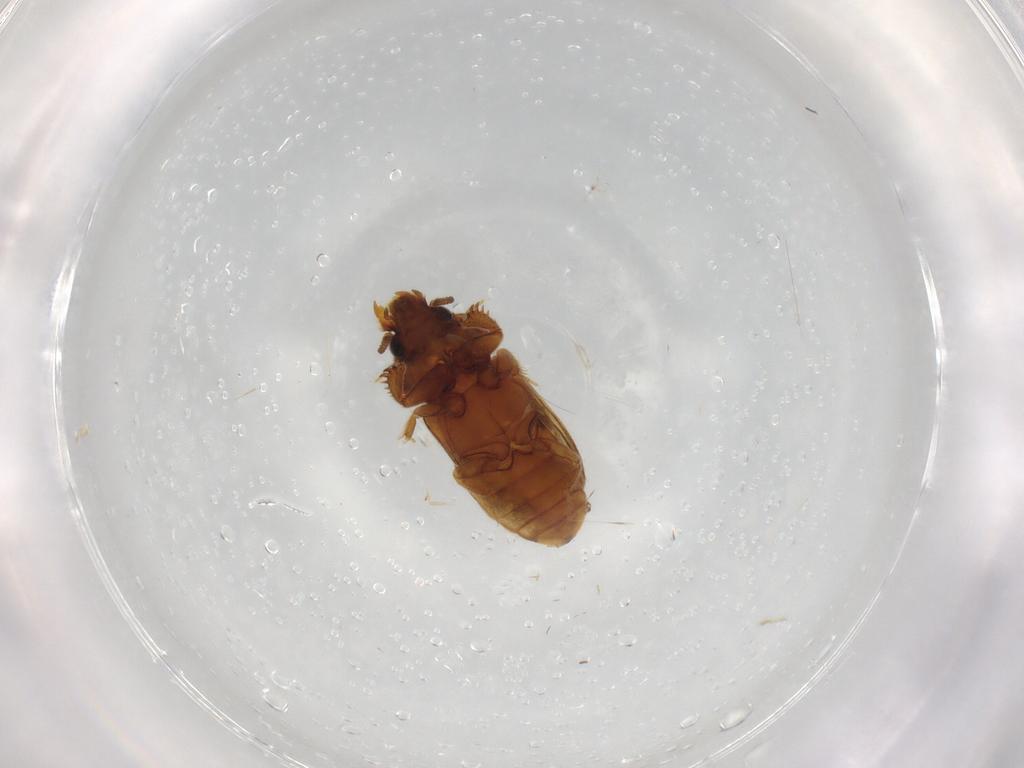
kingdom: Animalia
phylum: Arthropoda
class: Insecta
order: Coleoptera
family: Heteroceridae
